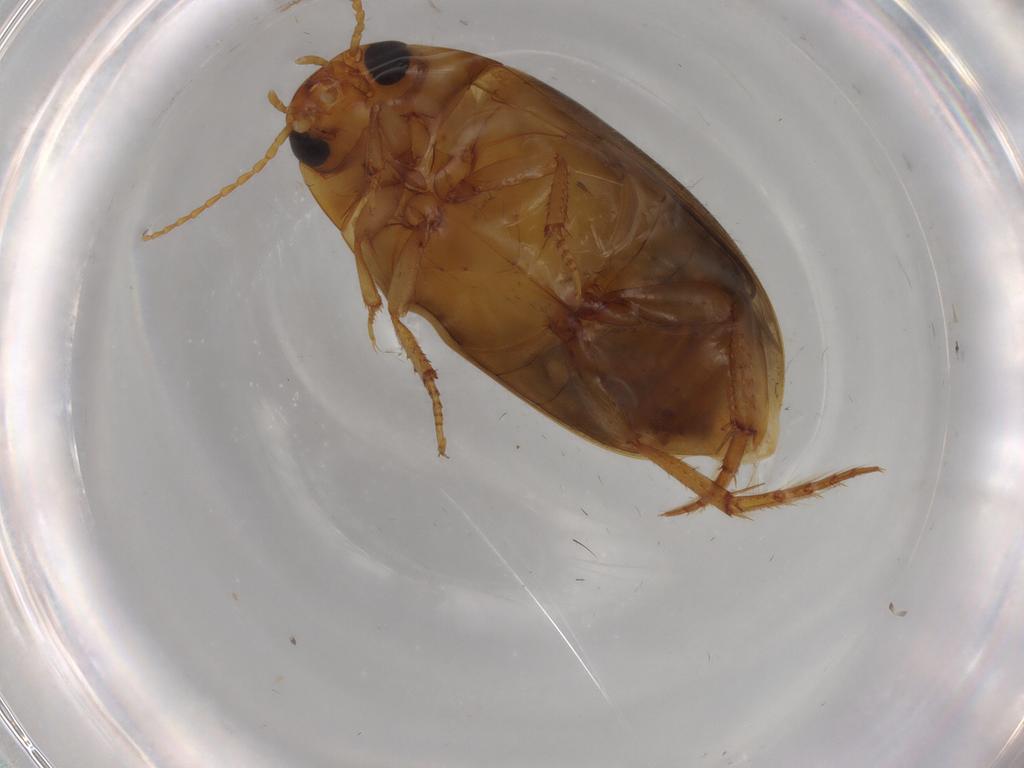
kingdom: Animalia
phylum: Arthropoda
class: Insecta
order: Coleoptera
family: Dytiscidae
